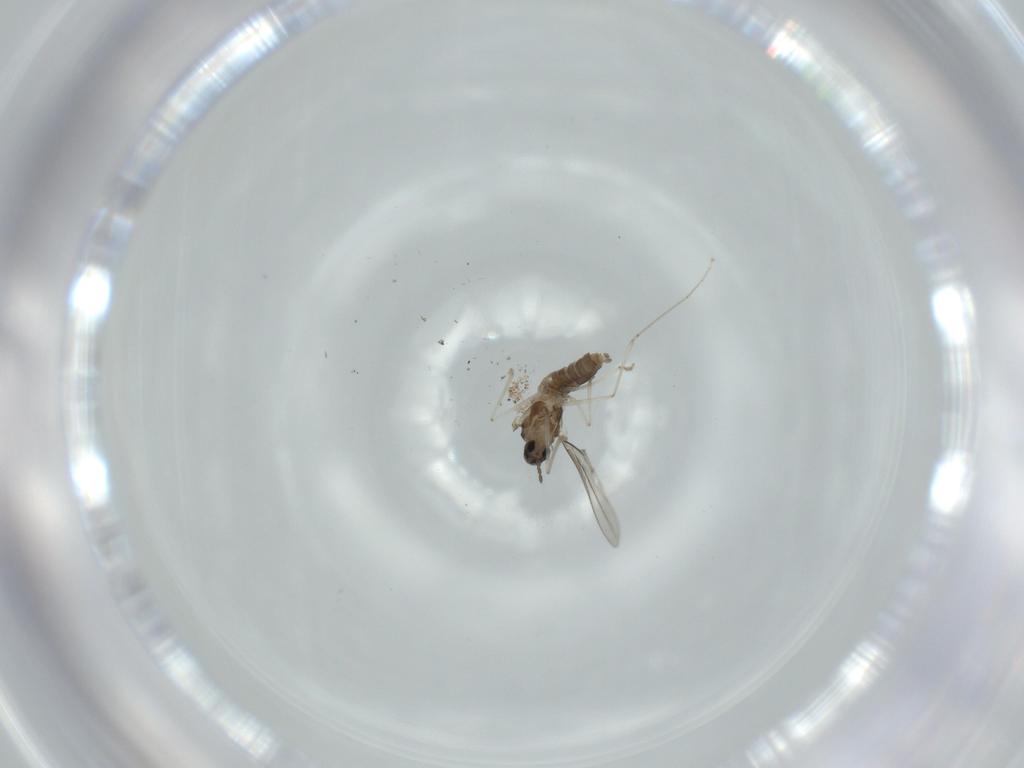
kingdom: Animalia
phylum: Arthropoda
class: Insecta
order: Diptera
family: Cecidomyiidae
